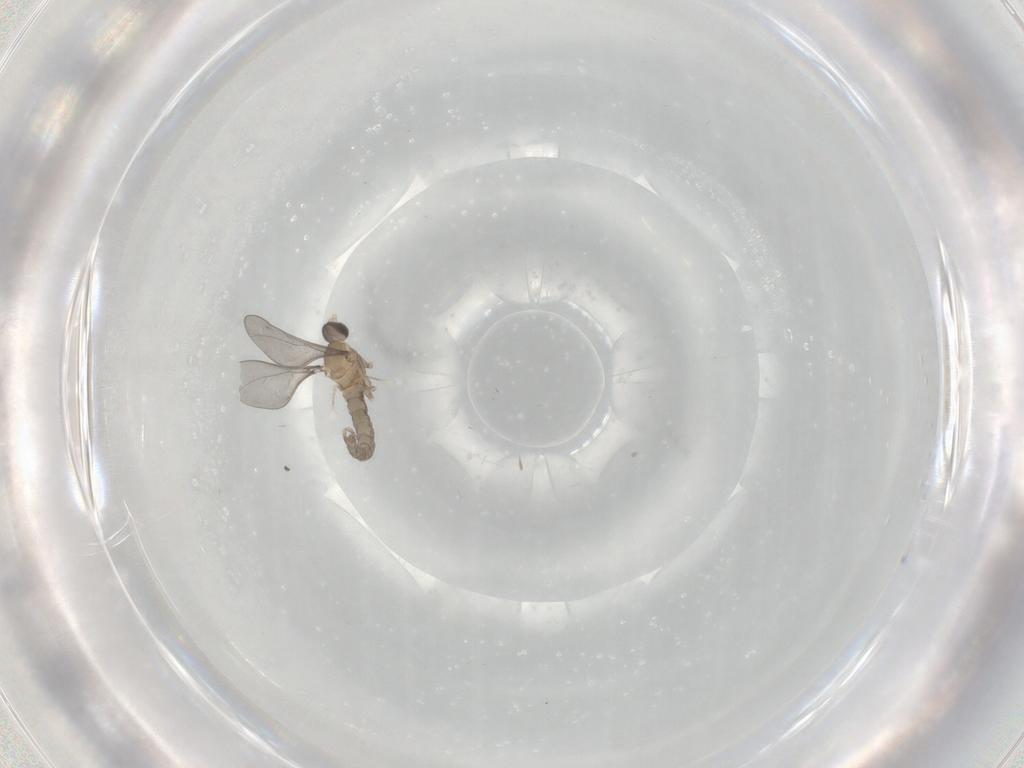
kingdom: Animalia
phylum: Arthropoda
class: Insecta
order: Diptera
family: Cecidomyiidae
